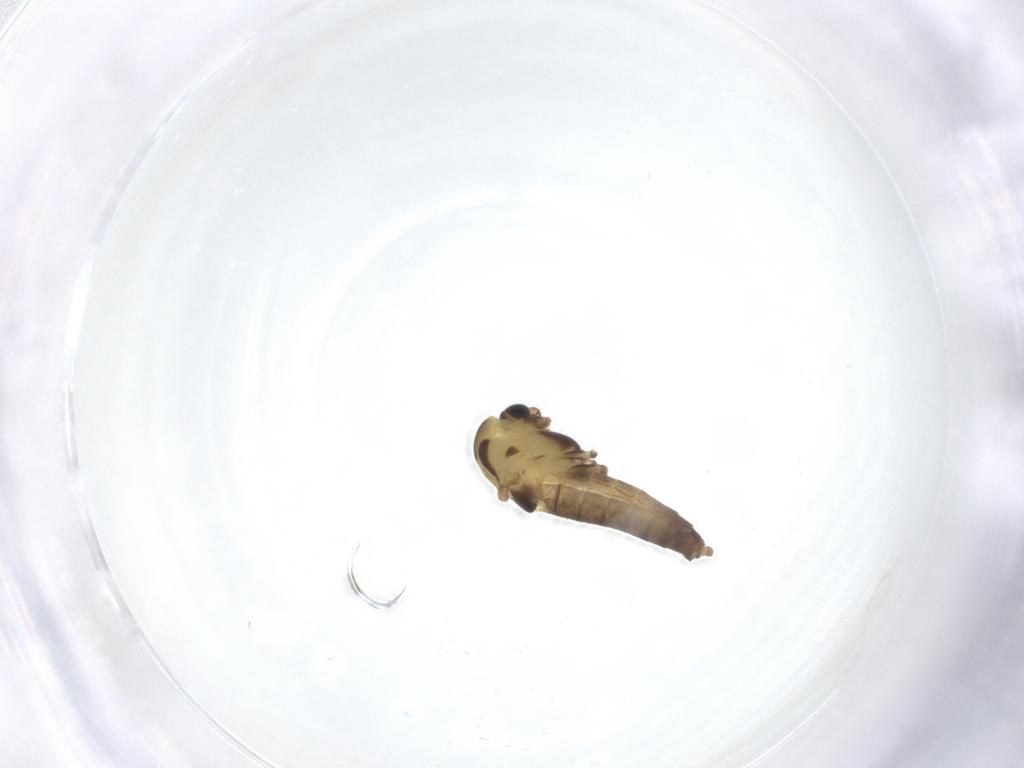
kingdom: Animalia
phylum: Arthropoda
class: Insecta
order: Diptera
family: Chironomidae
